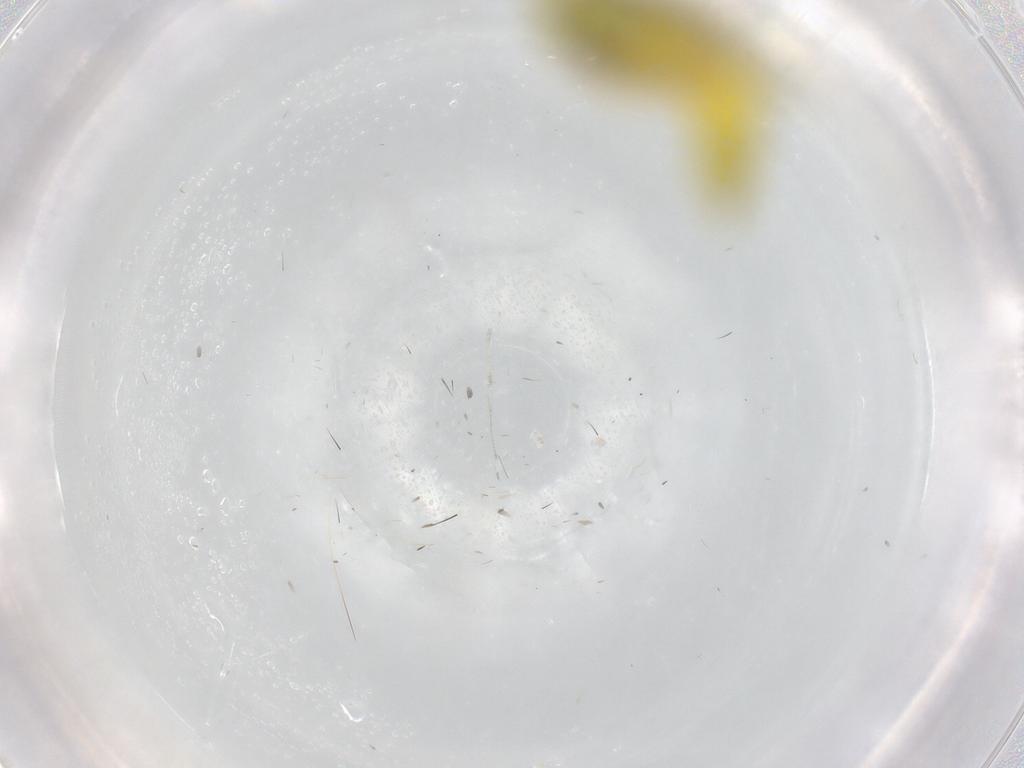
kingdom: Animalia
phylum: Arthropoda
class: Insecta
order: Hemiptera
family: Cicadellidae
